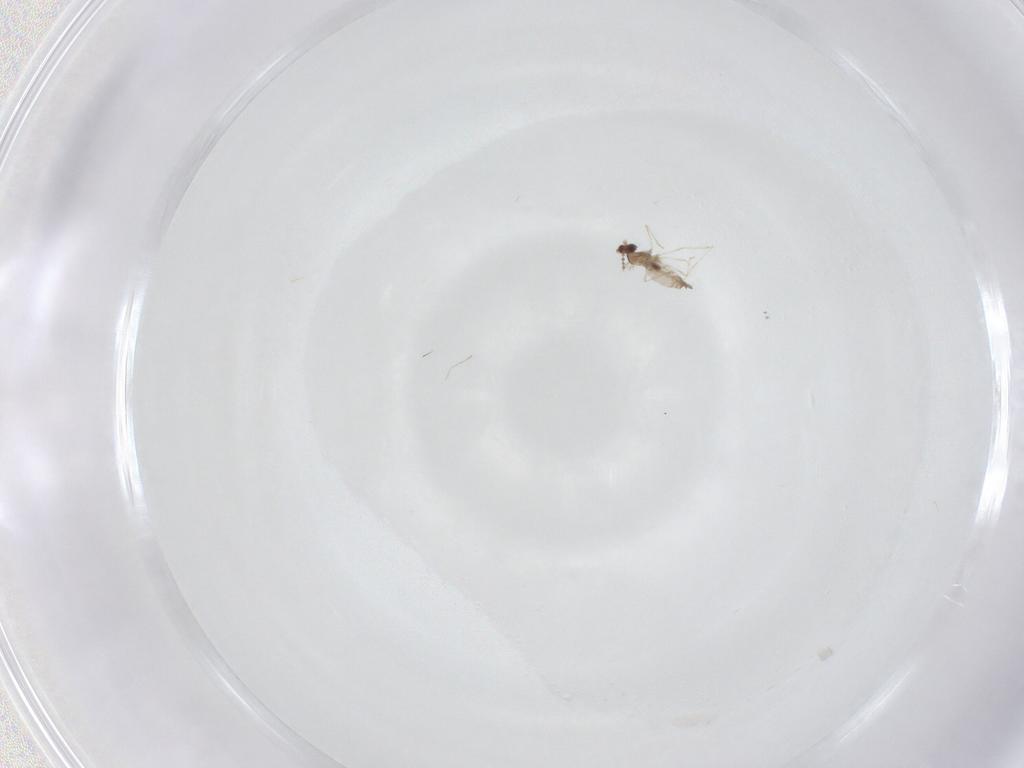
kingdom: Animalia
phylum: Arthropoda
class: Insecta
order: Diptera
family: Cecidomyiidae
